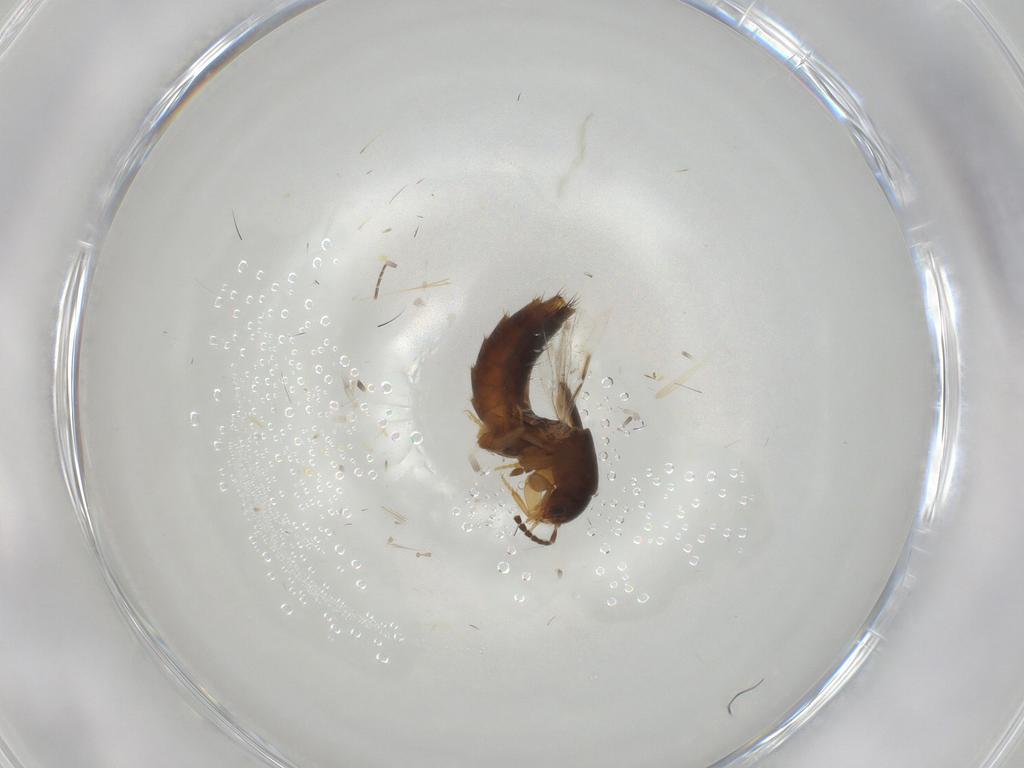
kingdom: Animalia
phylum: Arthropoda
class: Insecta
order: Coleoptera
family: Staphylinidae
